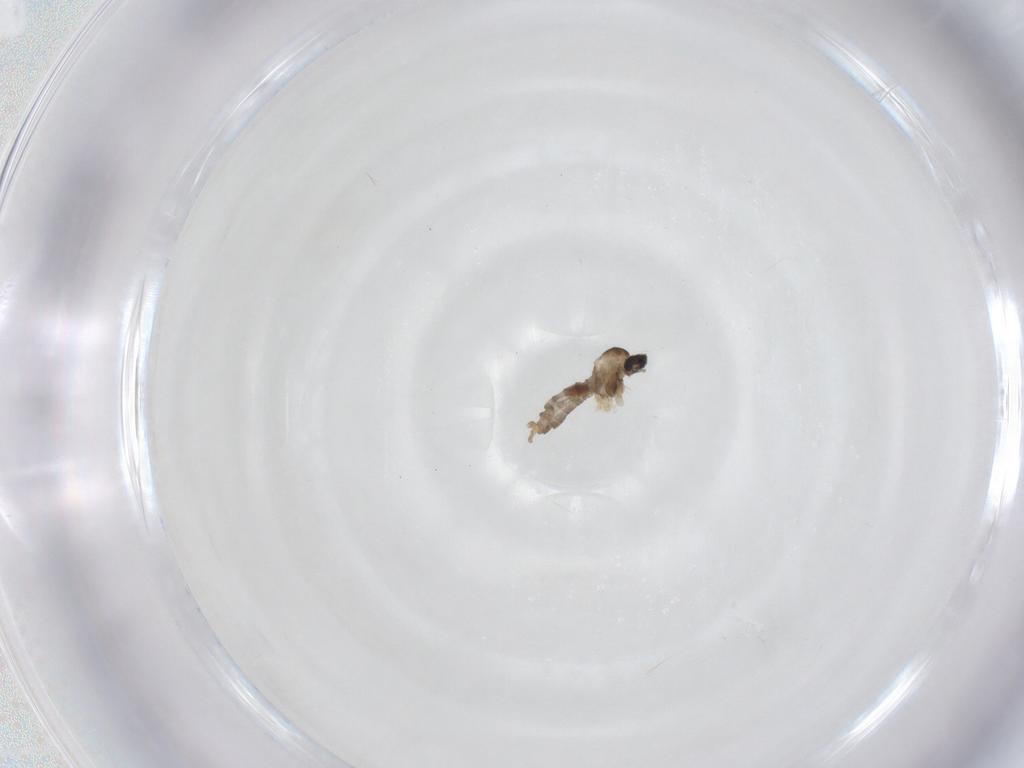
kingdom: Animalia
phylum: Arthropoda
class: Insecta
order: Diptera
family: Cecidomyiidae
